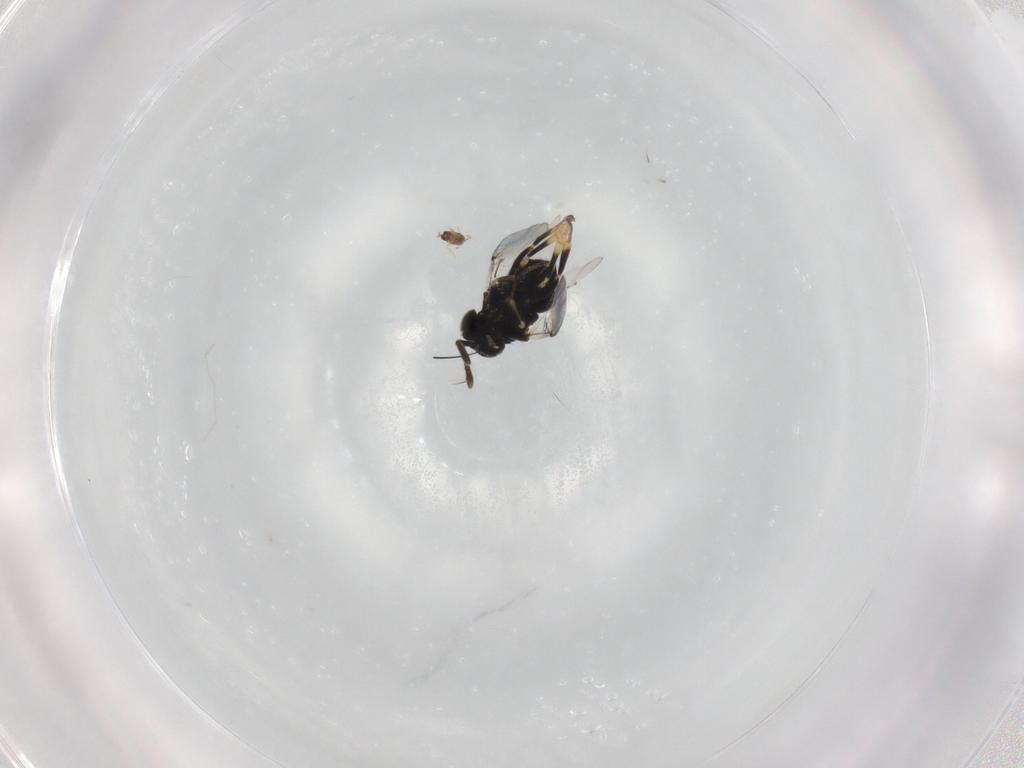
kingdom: Animalia
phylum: Arthropoda
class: Insecta
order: Hymenoptera
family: Mymaridae
